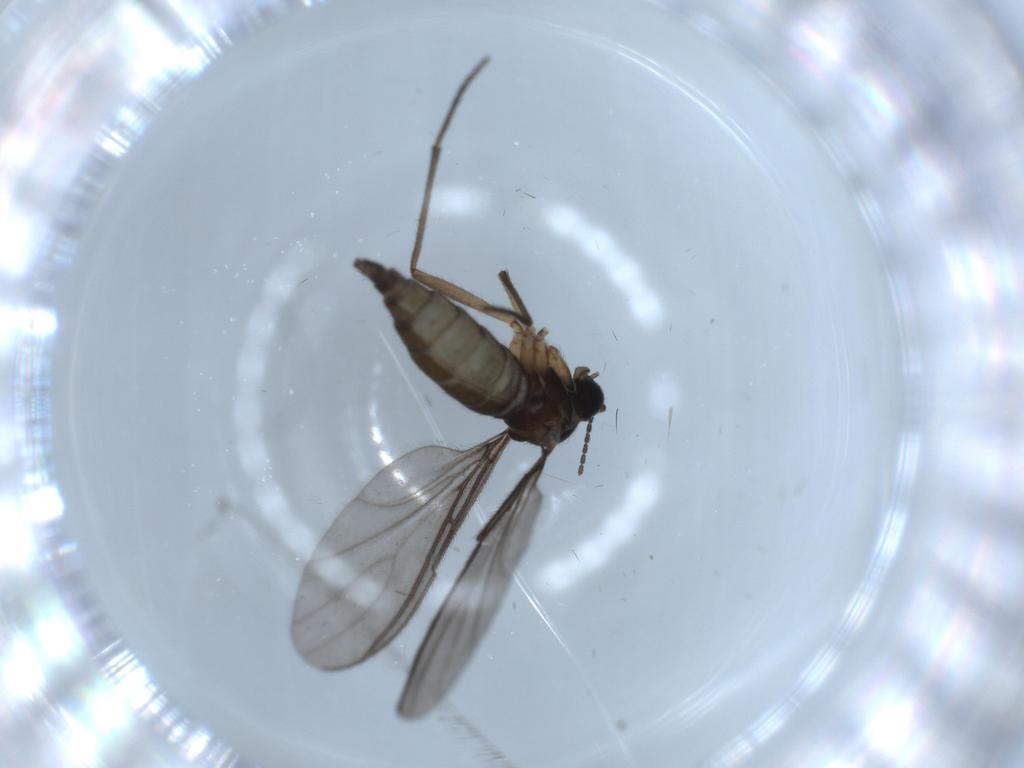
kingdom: Animalia
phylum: Arthropoda
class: Insecta
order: Diptera
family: Sciaridae
